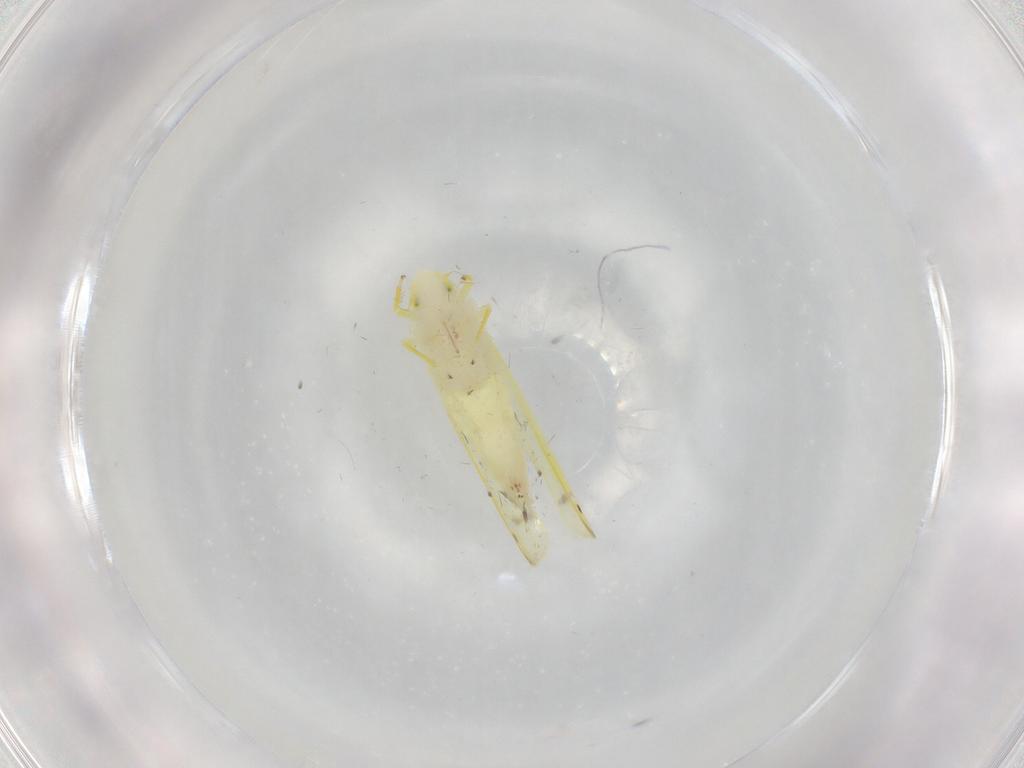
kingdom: Animalia
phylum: Arthropoda
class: Insecta
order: Hemiptera
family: Cicadellidae
